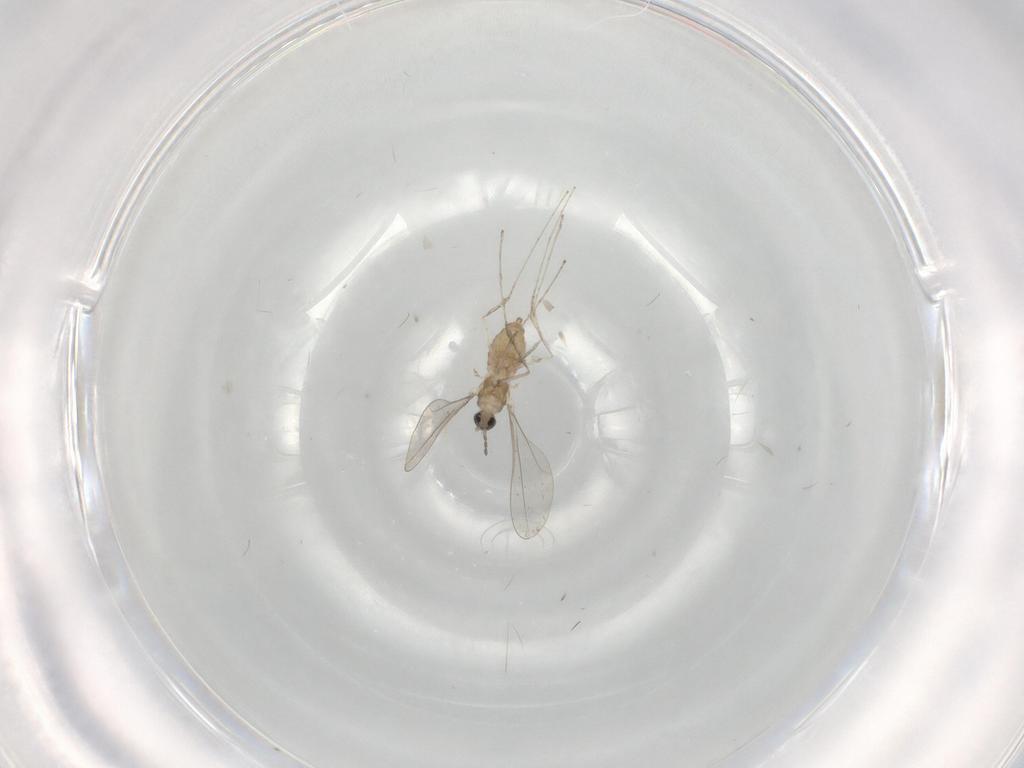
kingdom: Animalia
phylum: Arthropoda
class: Insecta
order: Diptera
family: Cecidomyiidae
